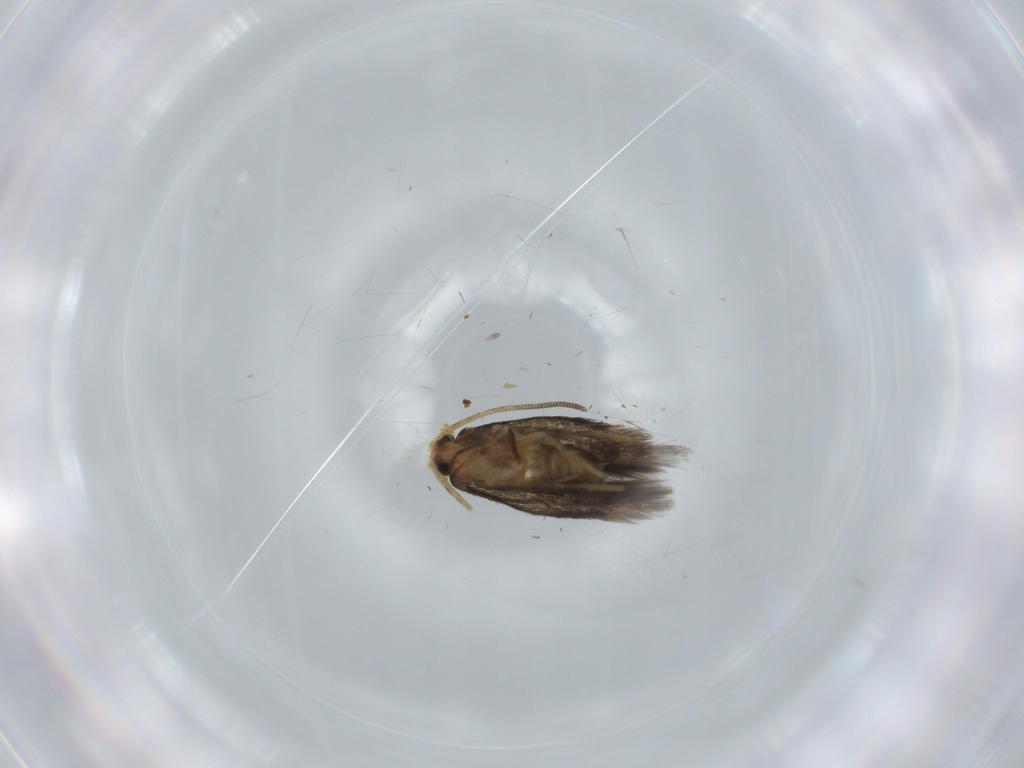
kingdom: Animalia
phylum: Arthropoda
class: Insecta
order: Lepidoptera
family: Nepticulidae
